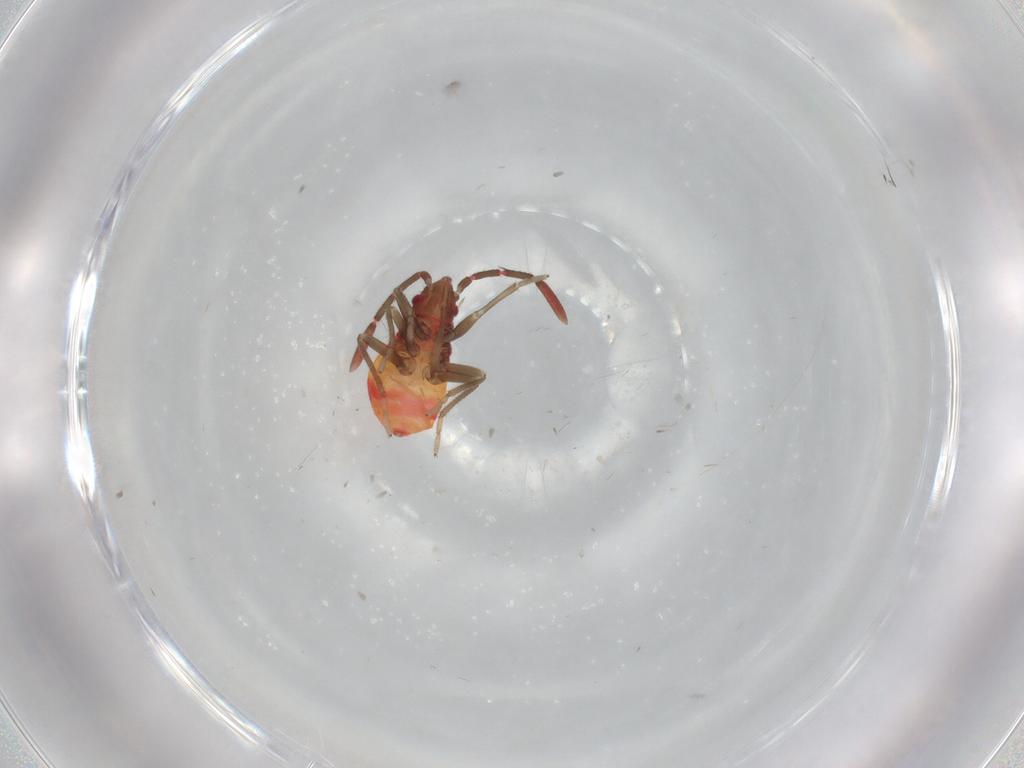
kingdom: Animalia
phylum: Arthropoda
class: Insecta
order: Hemiptera
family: Rhyparochromidae
